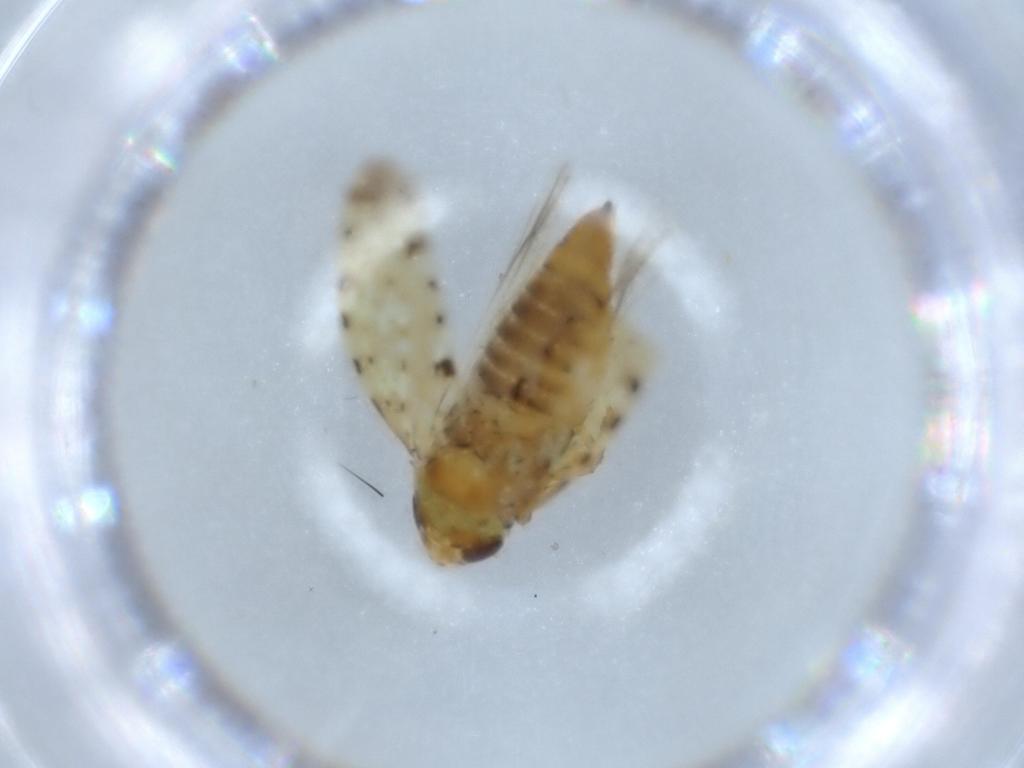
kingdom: Animalia
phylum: Arthropoda
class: Insecta
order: Hemiptera
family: Cicadellidae
